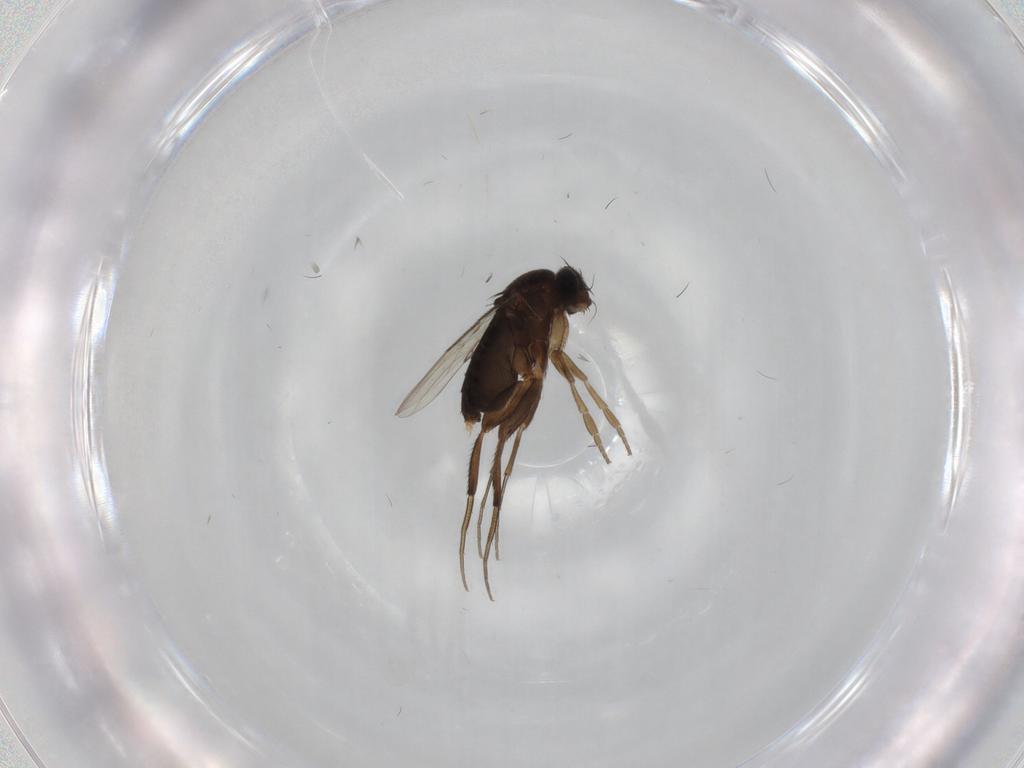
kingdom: Animalia
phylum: Arthropoda
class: Insecta
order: Diptera
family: Phoridae
